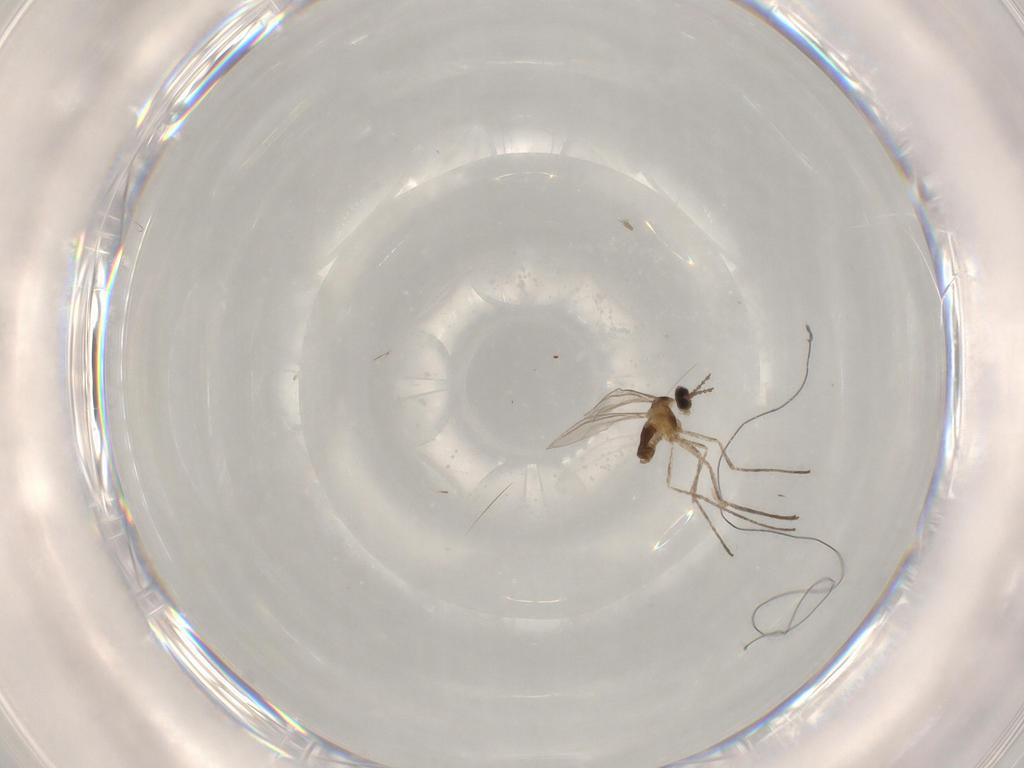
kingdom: Animalia
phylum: Arthropoda
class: Insecta
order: Diptera
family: Cecidomyiidae
